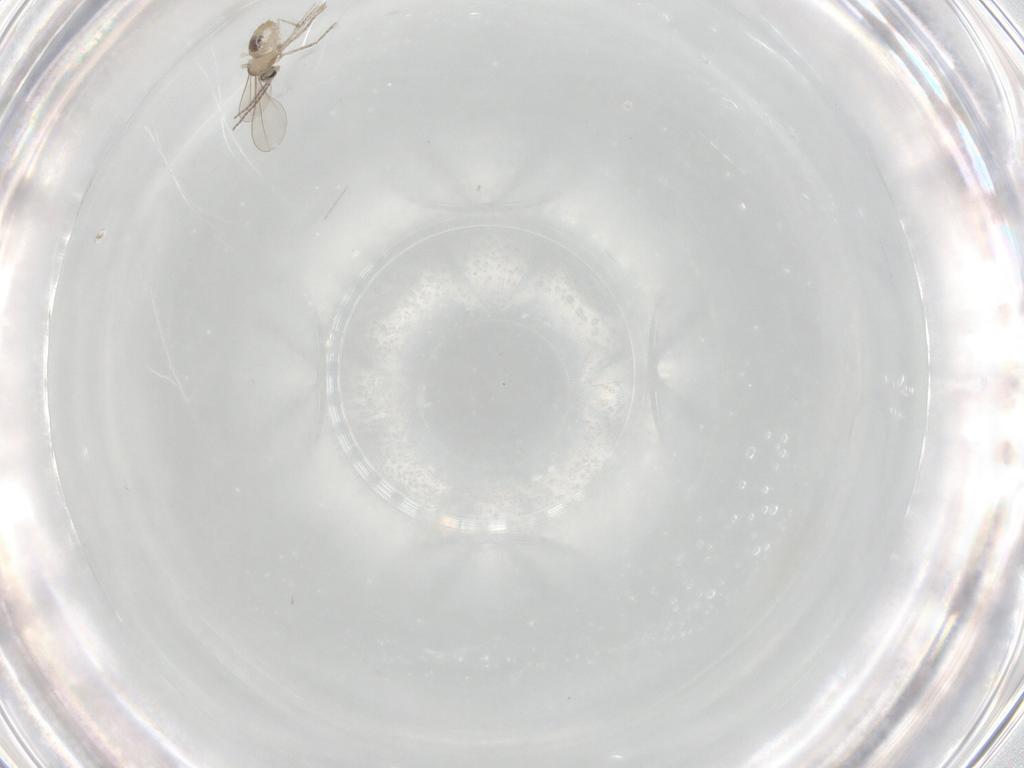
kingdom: Animalia
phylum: Arthropoda
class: Insecta
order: Diptera
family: Cecidomyiidae
